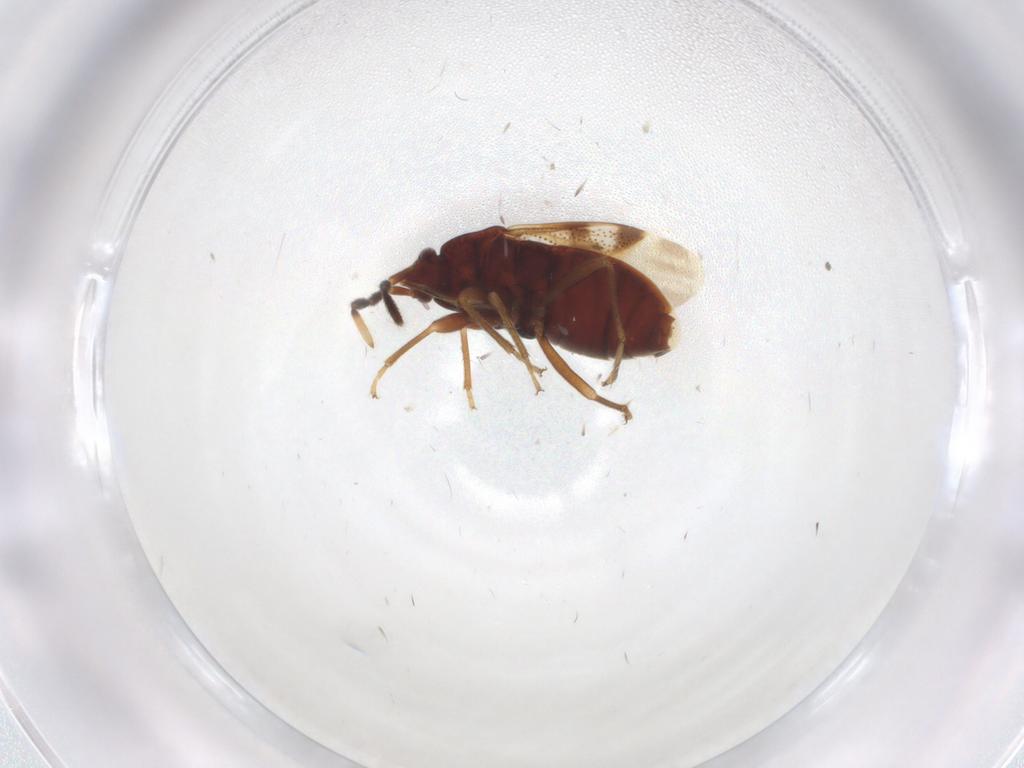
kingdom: Animalia
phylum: Arthropoda
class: Insecta
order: Hemiptera
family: Rhyparochromidae
